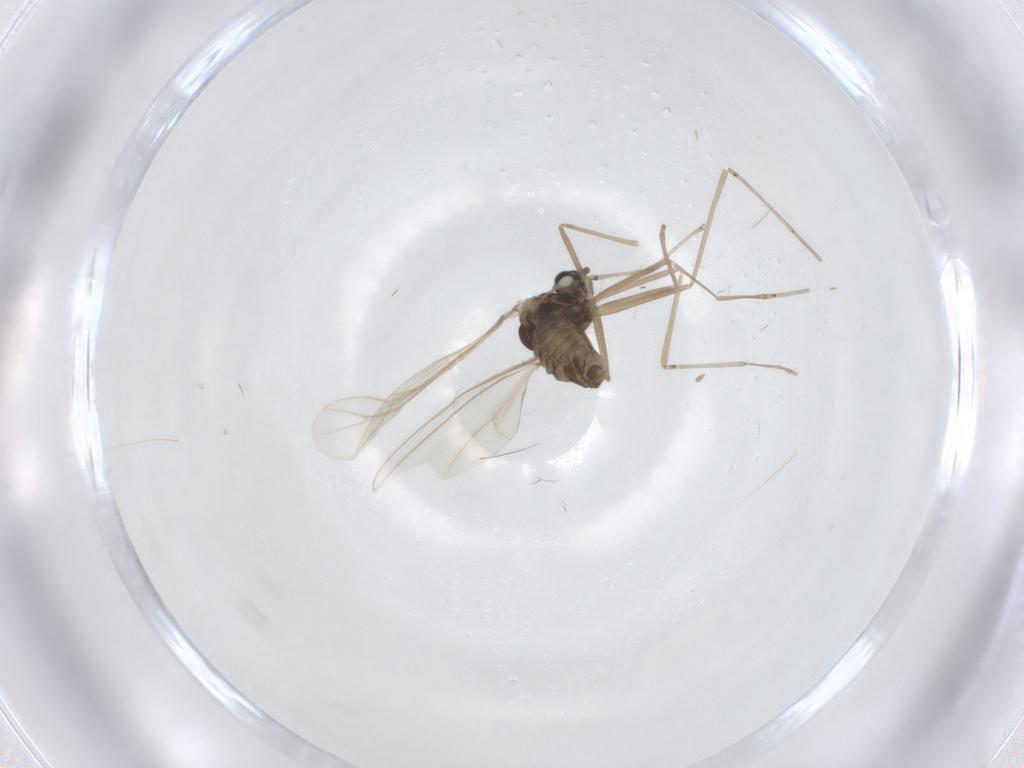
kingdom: Animalia
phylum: Arthropoda
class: Insecta
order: Diptera
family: Cecidomyiidae
